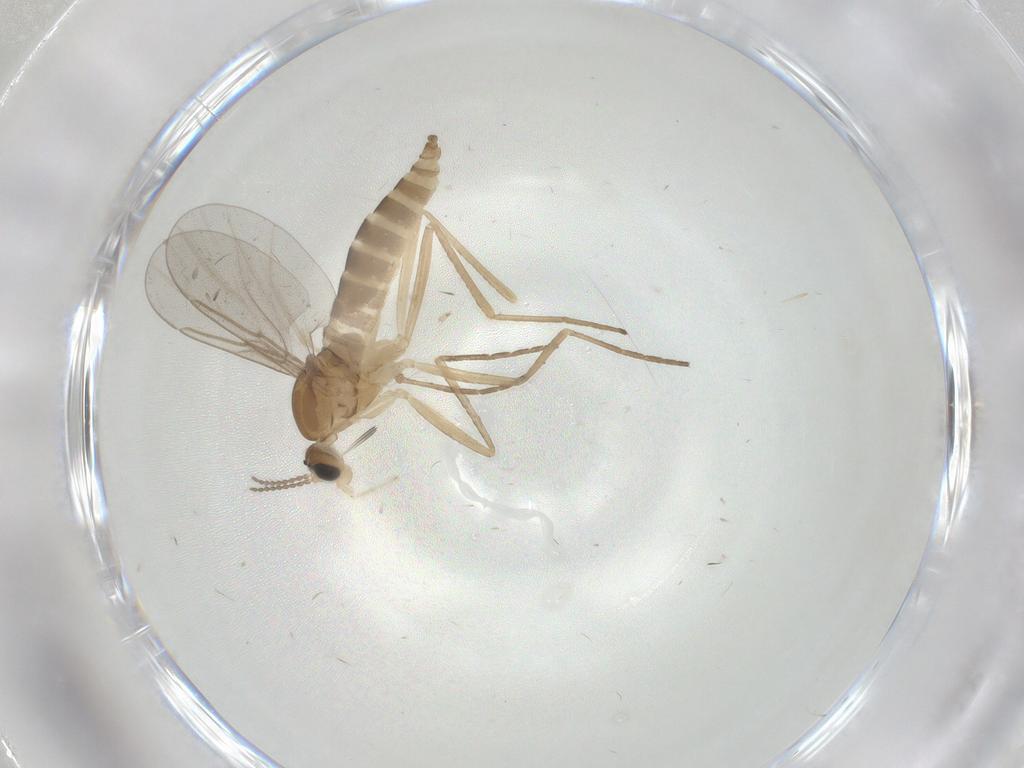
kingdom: Animalia
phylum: Arthropoda
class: Insecta
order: Diptera
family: Cecidomyiidae
